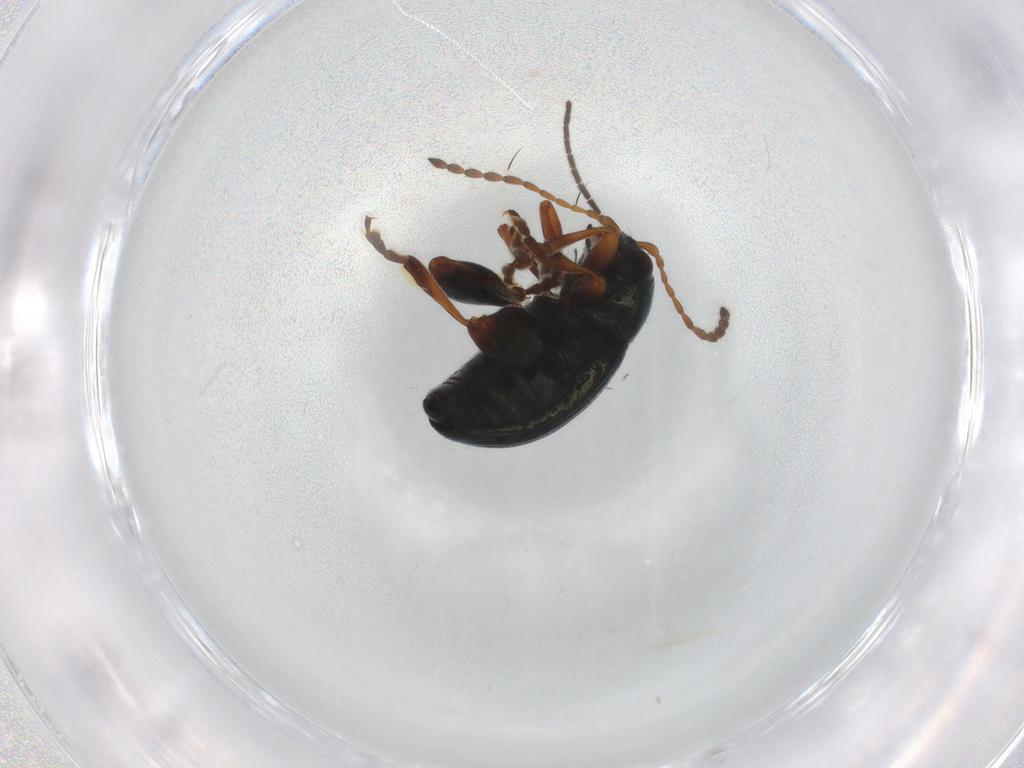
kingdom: Animalia
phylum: Arthropoda
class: Insecta
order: Coleoptera
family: Chrysomelidae
